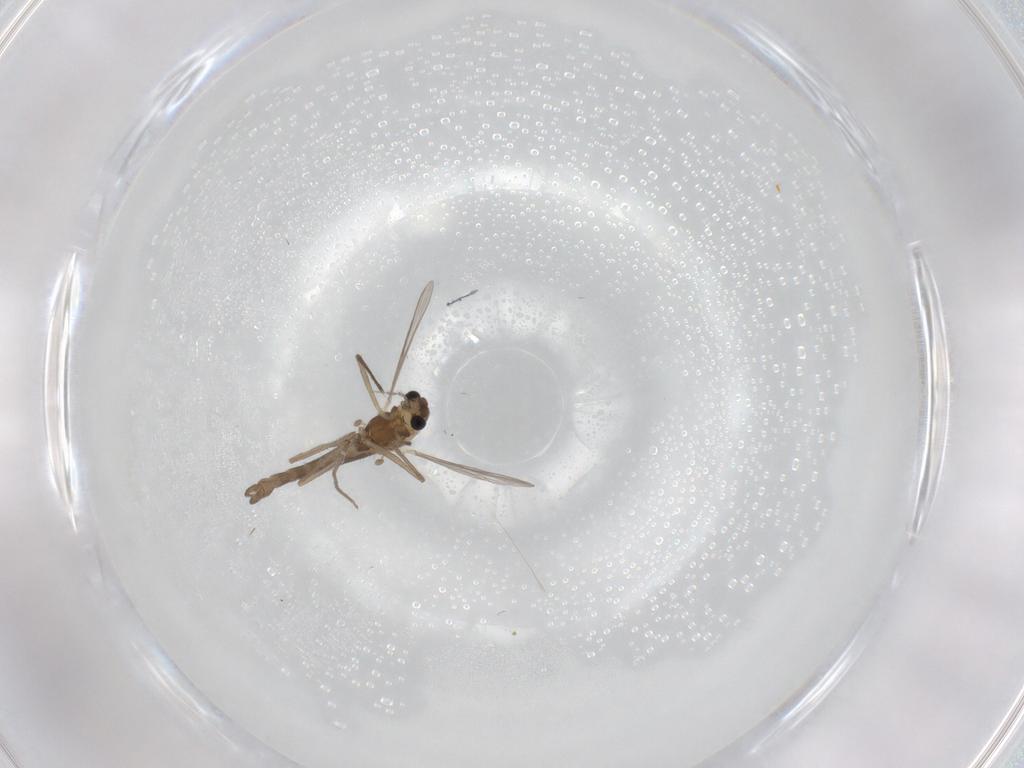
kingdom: Animalia
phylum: Arthropoda
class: Insecta
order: Diptera
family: Chironomidae
